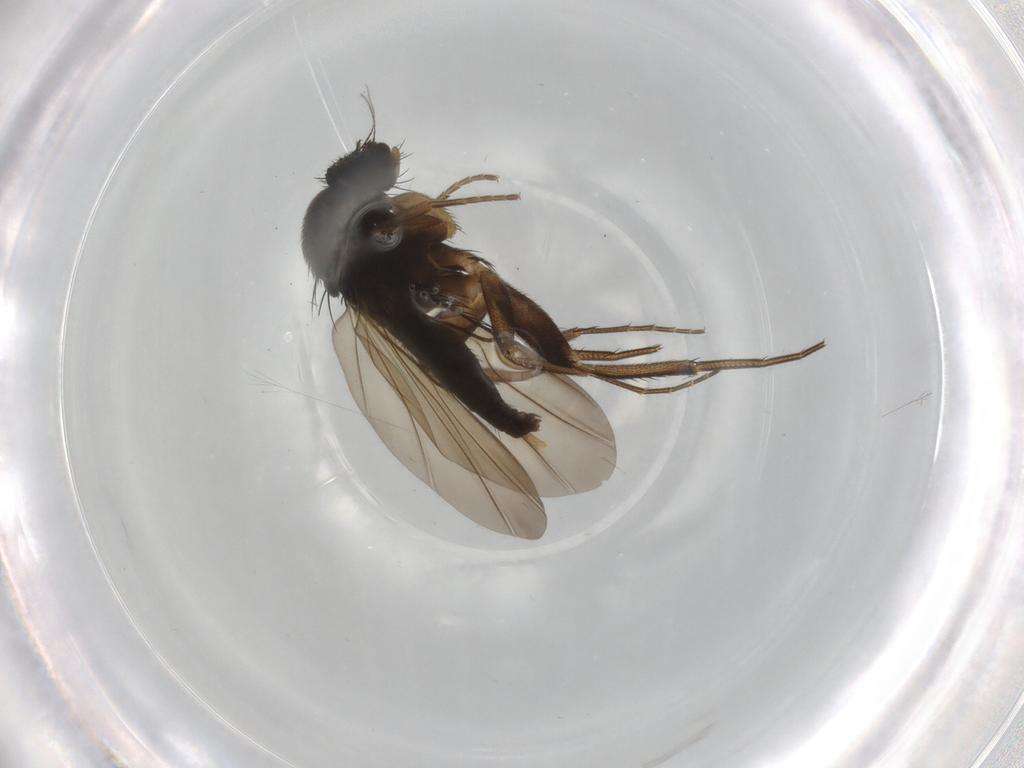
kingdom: Animalia
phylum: Arthropoda
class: Insecta
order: Diptera
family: Phoridae
